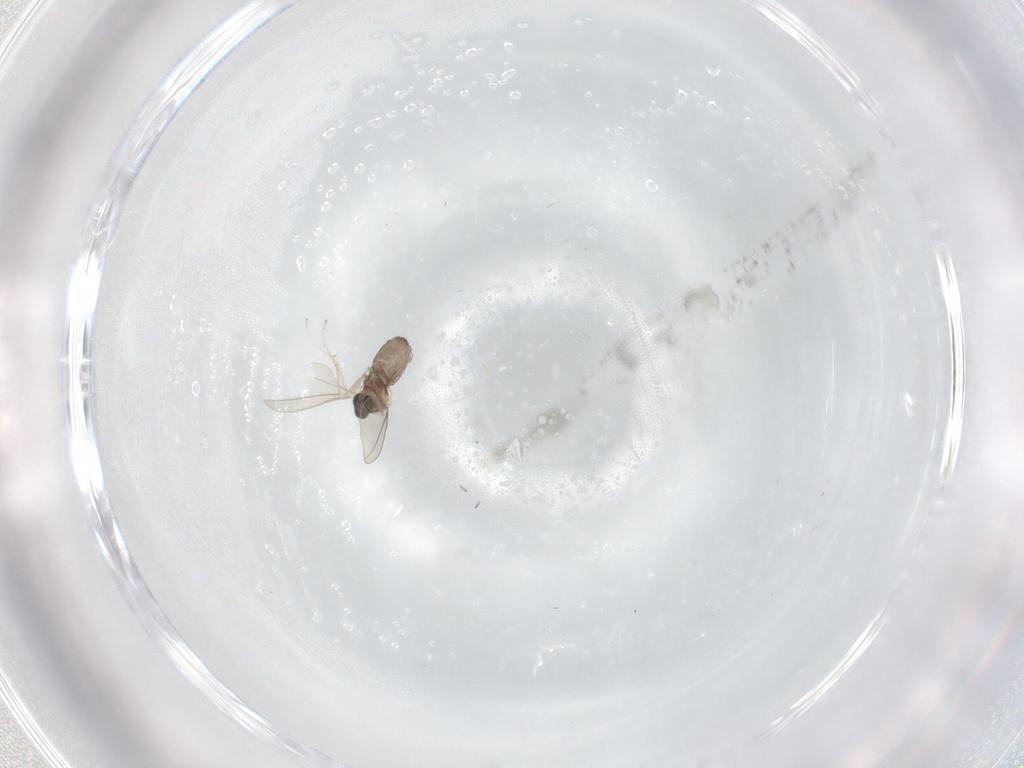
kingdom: Animalia
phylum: Arthropoda
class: Insecta
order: Diptera
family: Cecidomyiidae
